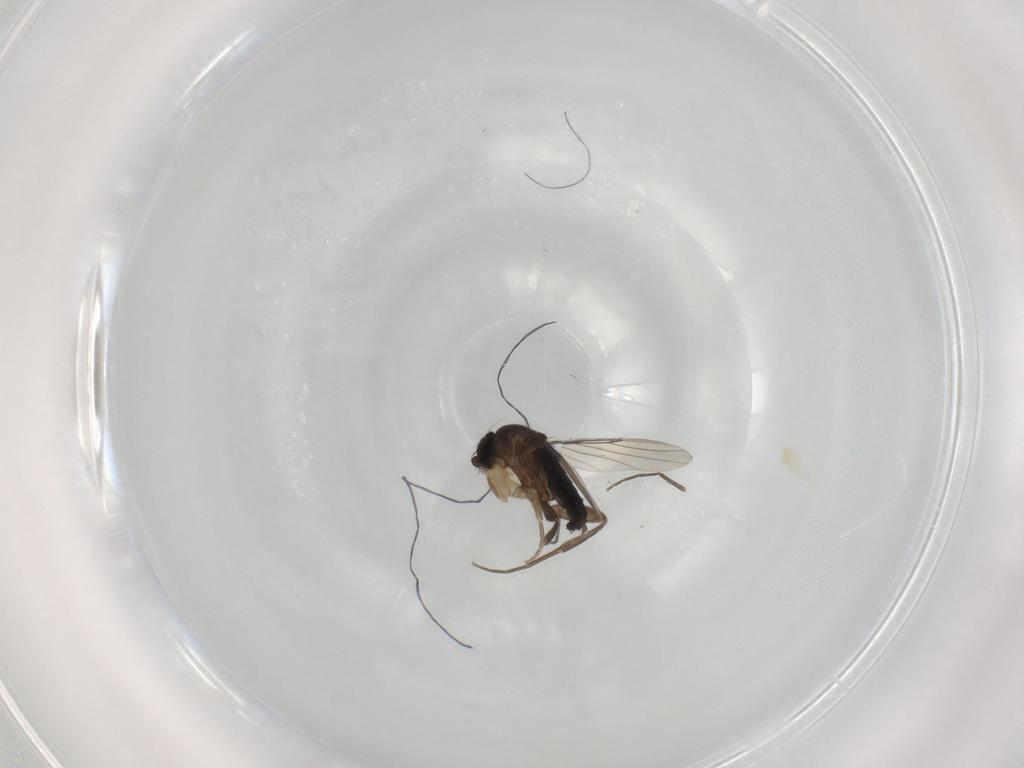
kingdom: Animalia
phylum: Arthropoda
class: Insecta
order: Diptera
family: Phoridae
